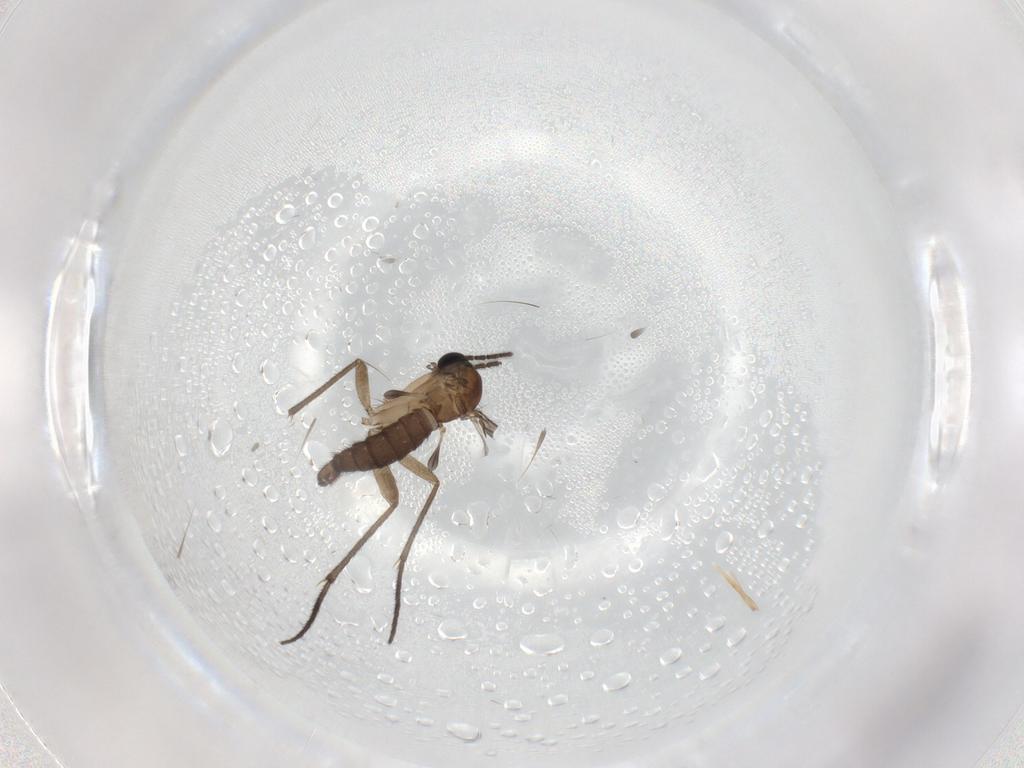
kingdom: Animalia
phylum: Arthropoda
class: Insecta
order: Diptera
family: Sciaridae
